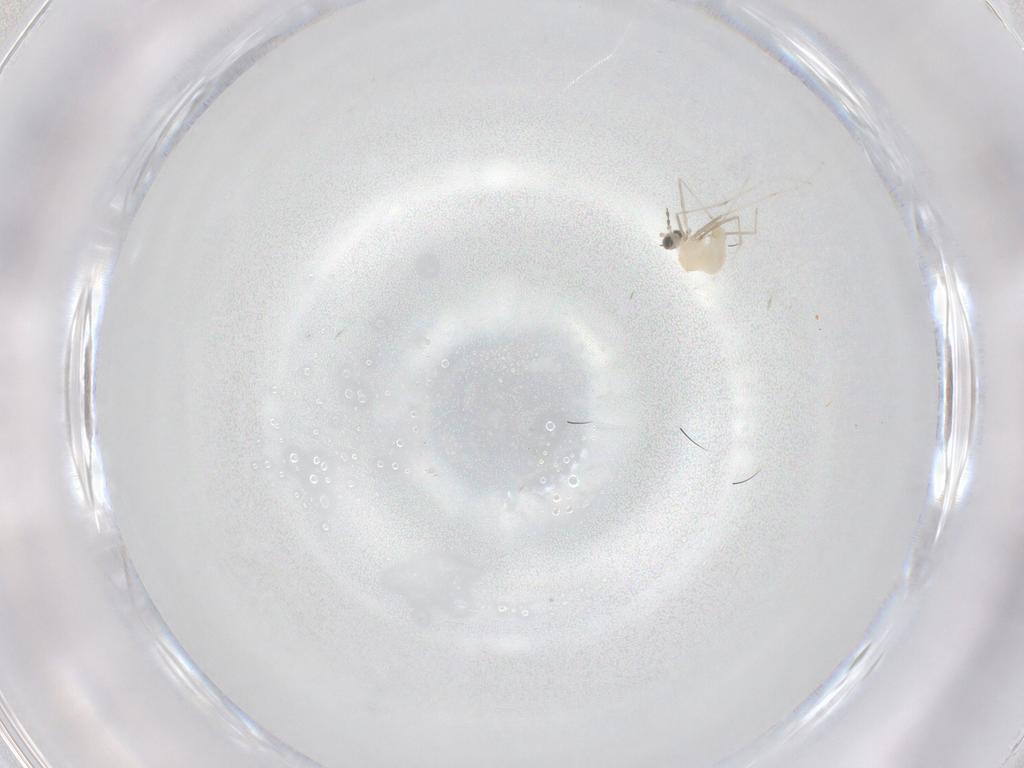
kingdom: Animalia
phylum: Arthropoda
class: Insecta
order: Diptera
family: Cecidomyiidae
